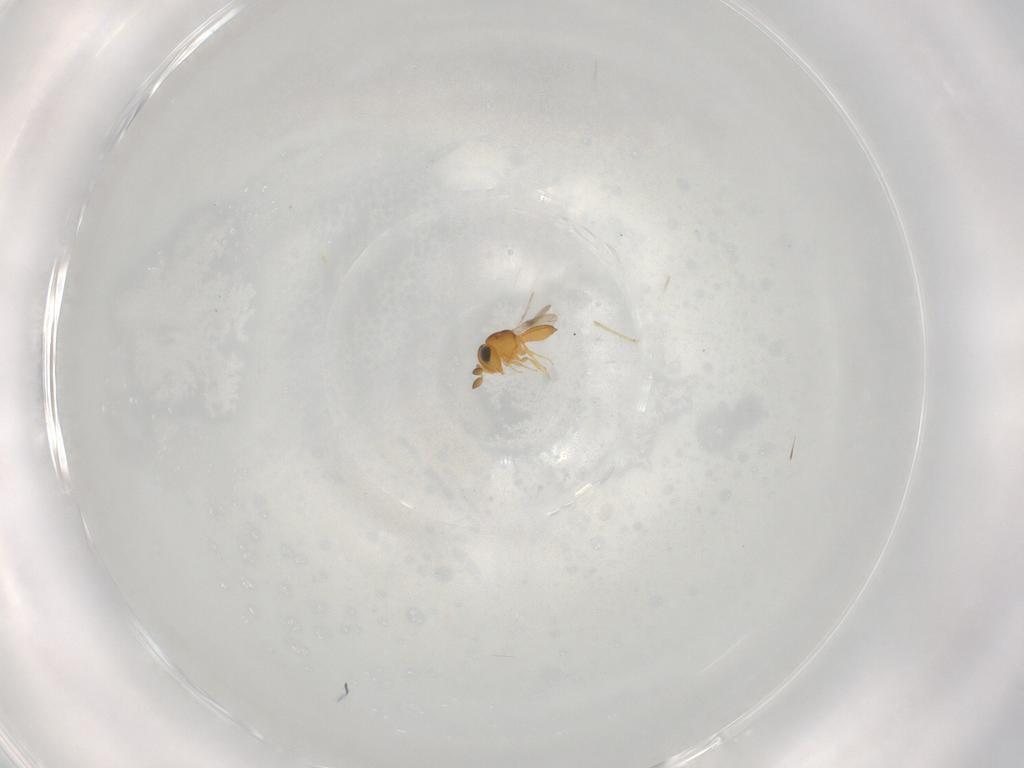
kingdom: Animalia
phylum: Arthropoda
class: Insecta
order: Hymenoptera
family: Scelionidae
